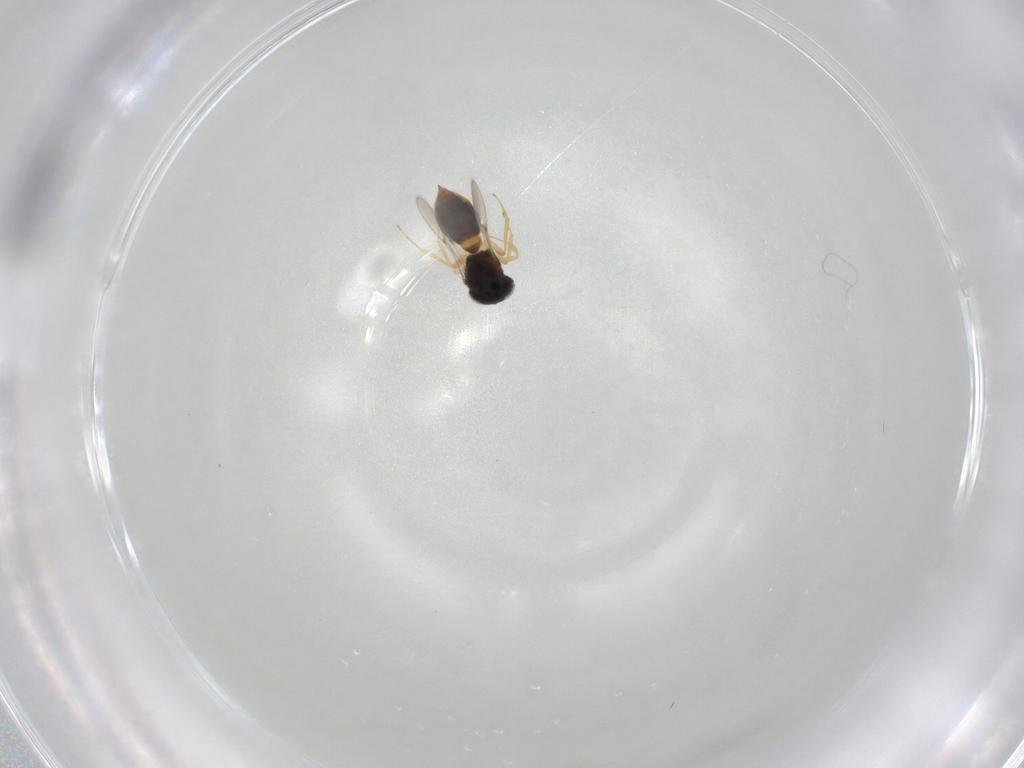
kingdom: Animalia
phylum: Arthropoda
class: Insecta
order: Hymenoptera
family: Scelionidae
